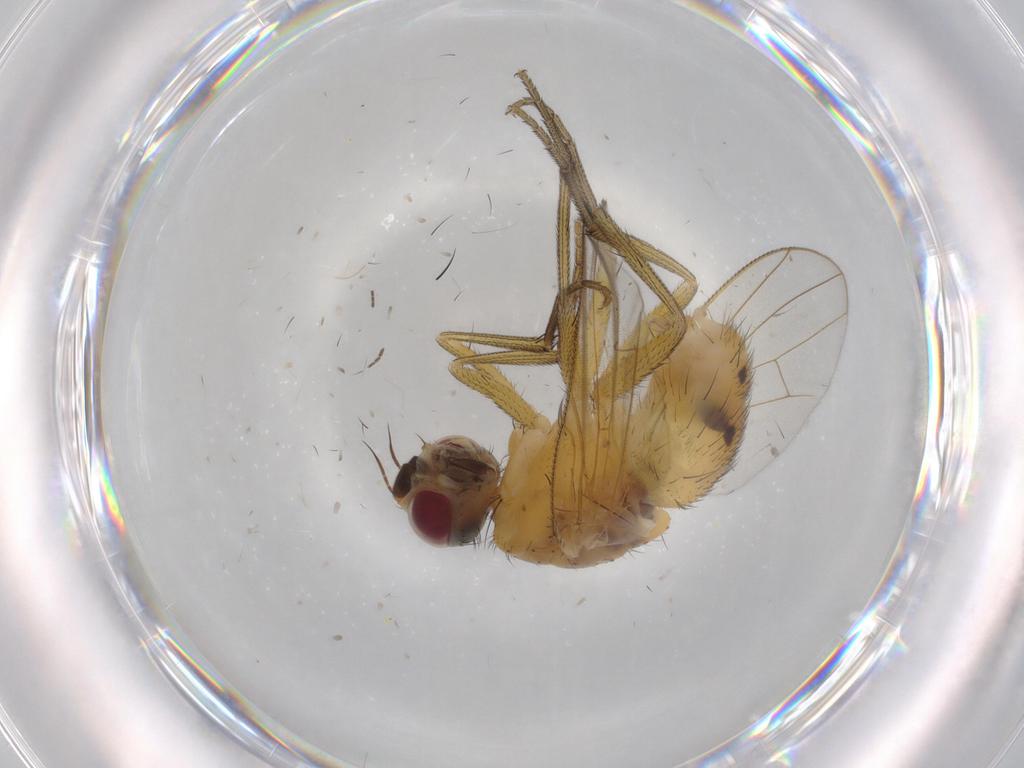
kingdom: Animalia
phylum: Arthropoda
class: Insecta
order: Diptera
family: Muscidae
